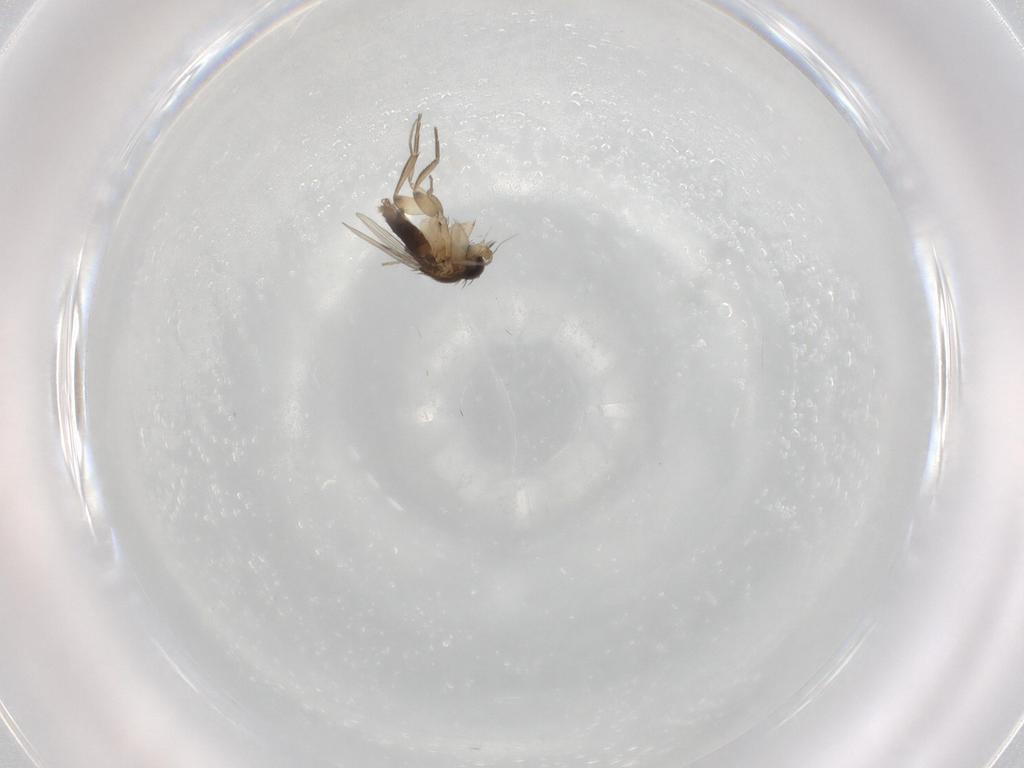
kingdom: Animalia
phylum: Arthropoda
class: Insecta
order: Diptera
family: Phoridae
